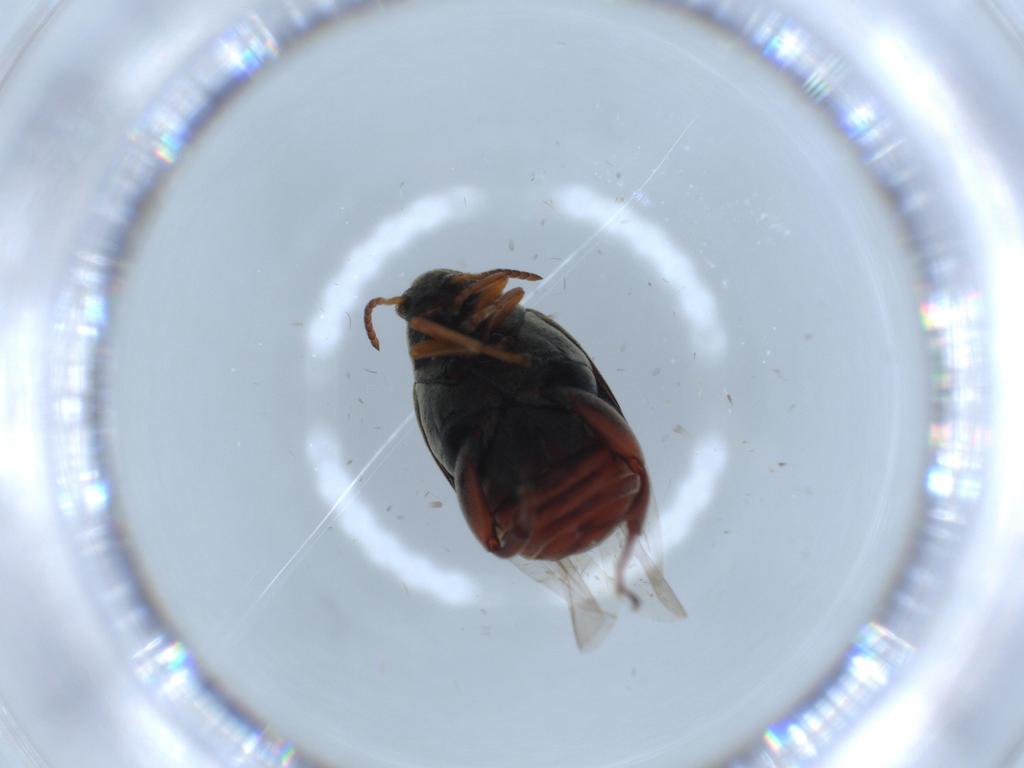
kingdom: Animalia
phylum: Arthropoda
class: Insecta
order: Coleoptera
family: Chrysomelidae
